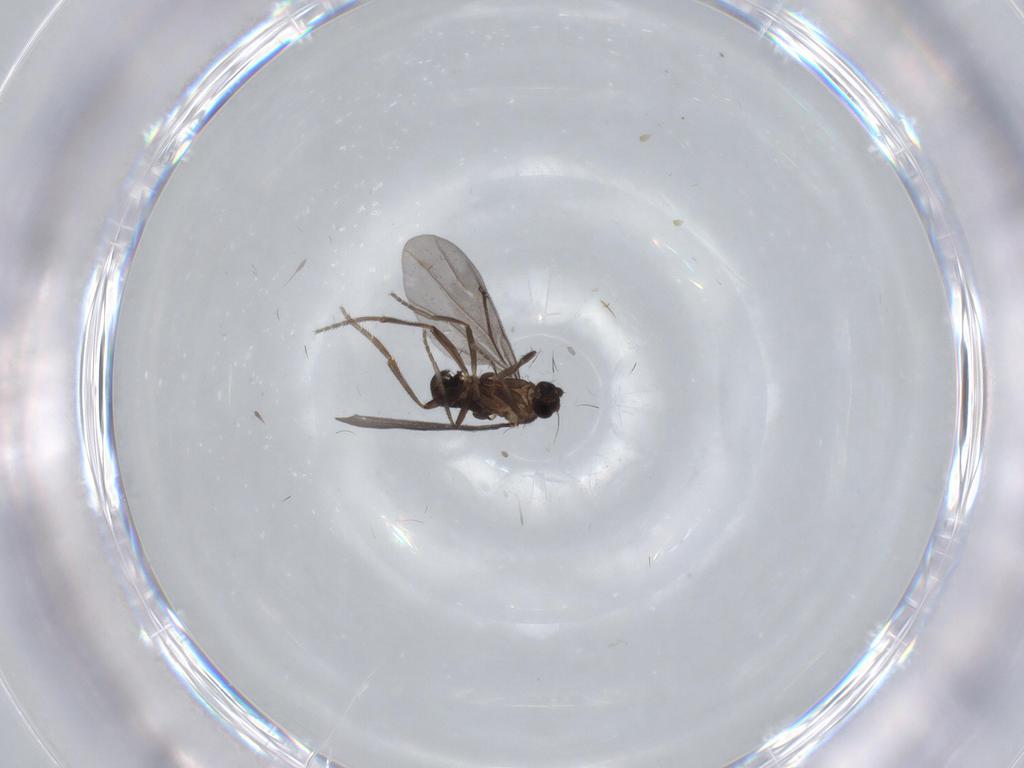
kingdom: Animalia
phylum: Arthropoda
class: Insecta
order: Diptera
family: Phoridae
